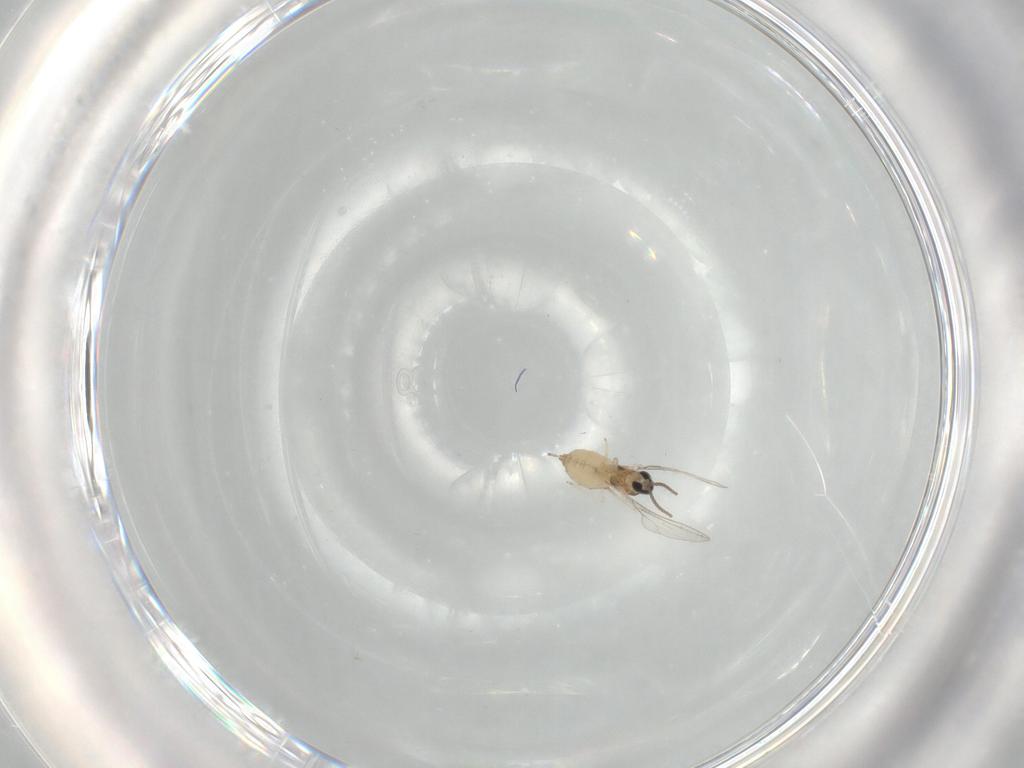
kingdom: Animalia
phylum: Arthropoda
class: Insecta
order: Diptera
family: Cecidomyiidae
